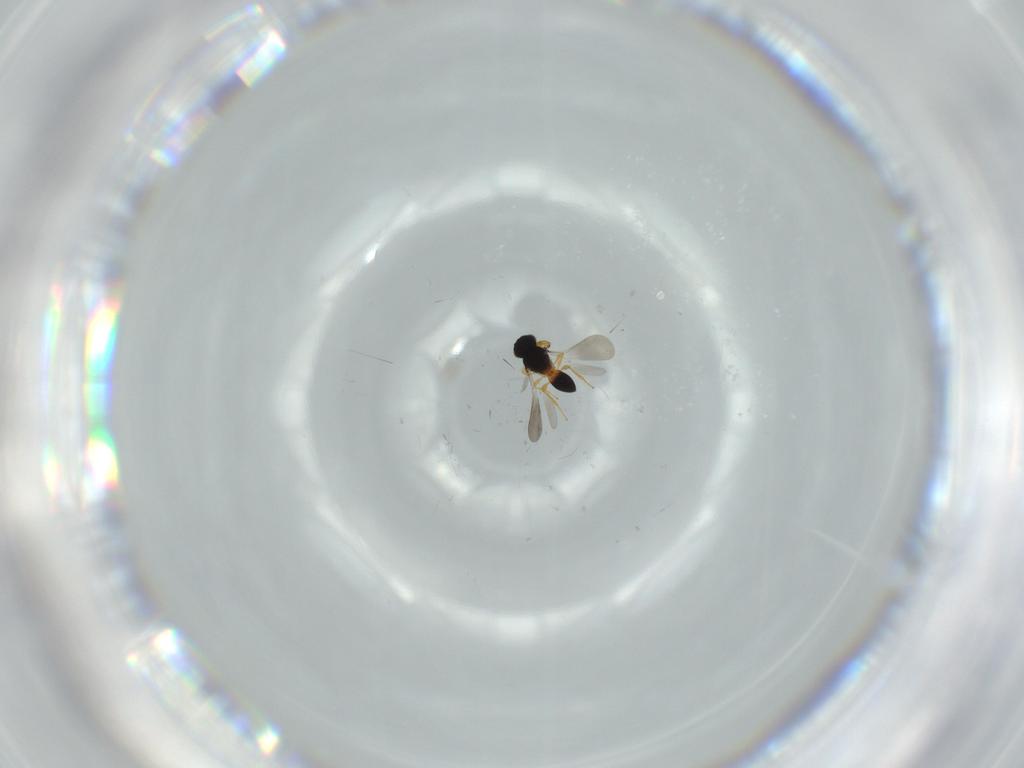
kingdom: Animalia
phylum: Arthropoda
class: Insecta
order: Hymenoptera
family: Platygastridae
